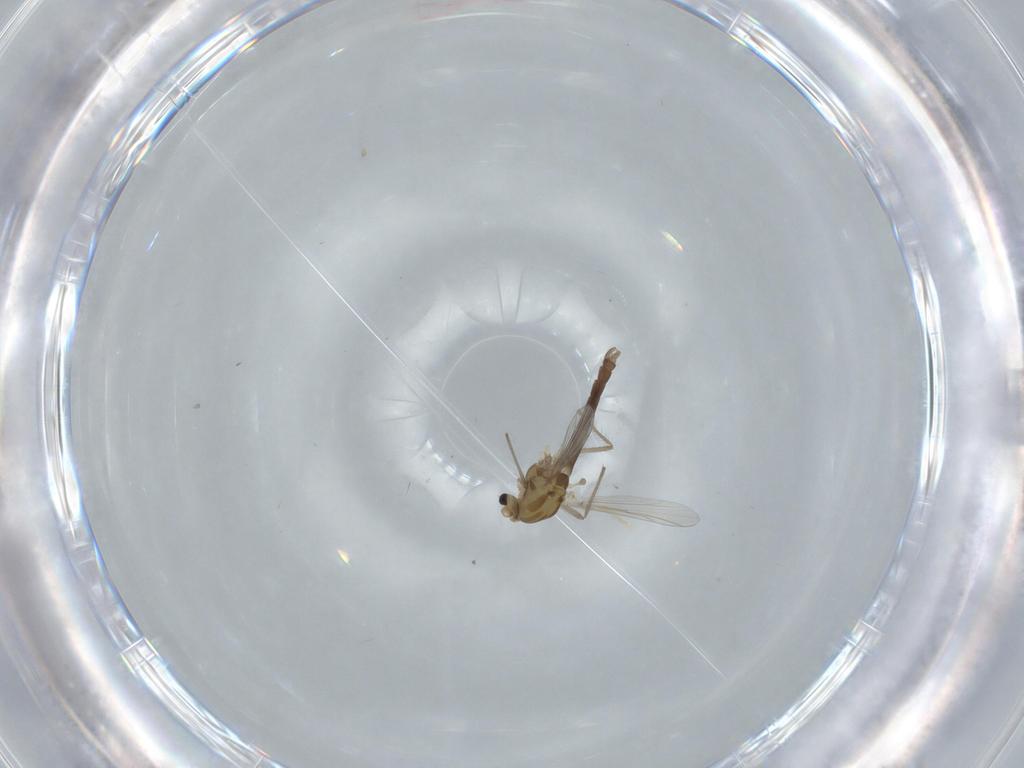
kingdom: Animalia
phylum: Arthropoda
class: Insecta
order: Diptera
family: Chironomidae
